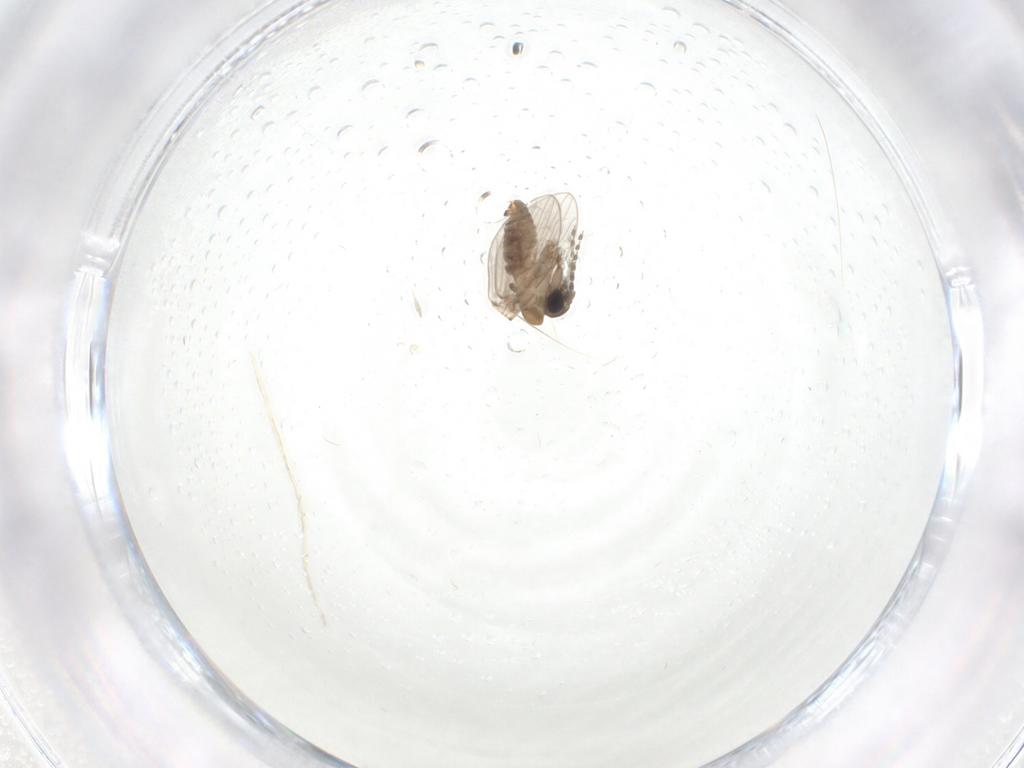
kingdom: Animalia
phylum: Arthropoda
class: Insecta
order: Diptera
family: Psychodidae
